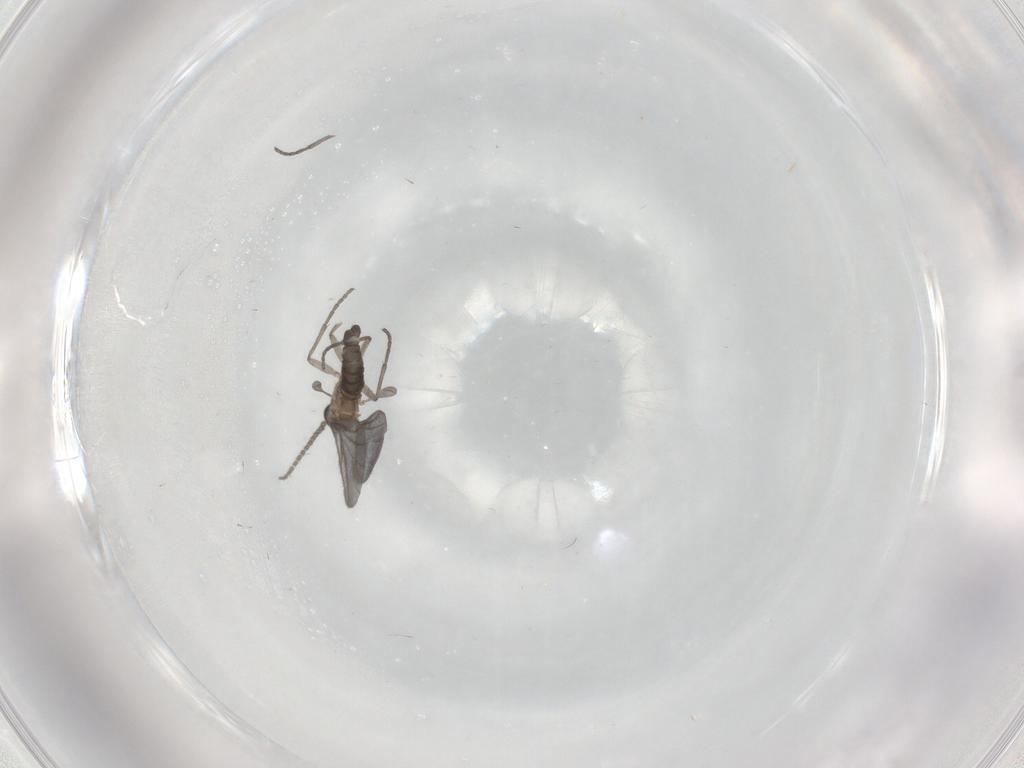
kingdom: Animalia
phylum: Arthropoda
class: Insecta
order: Diptera
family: Sciaridae
